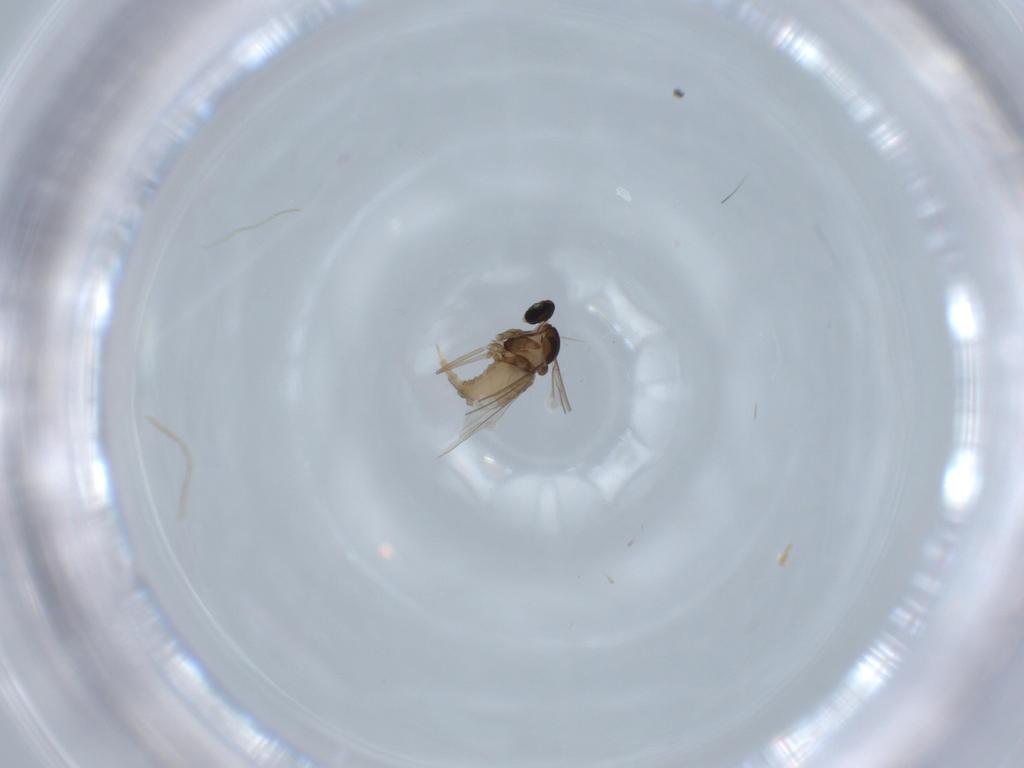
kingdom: Animalia
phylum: Arthropoda
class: Insecta
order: Diptera
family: Cecidomyiidae
